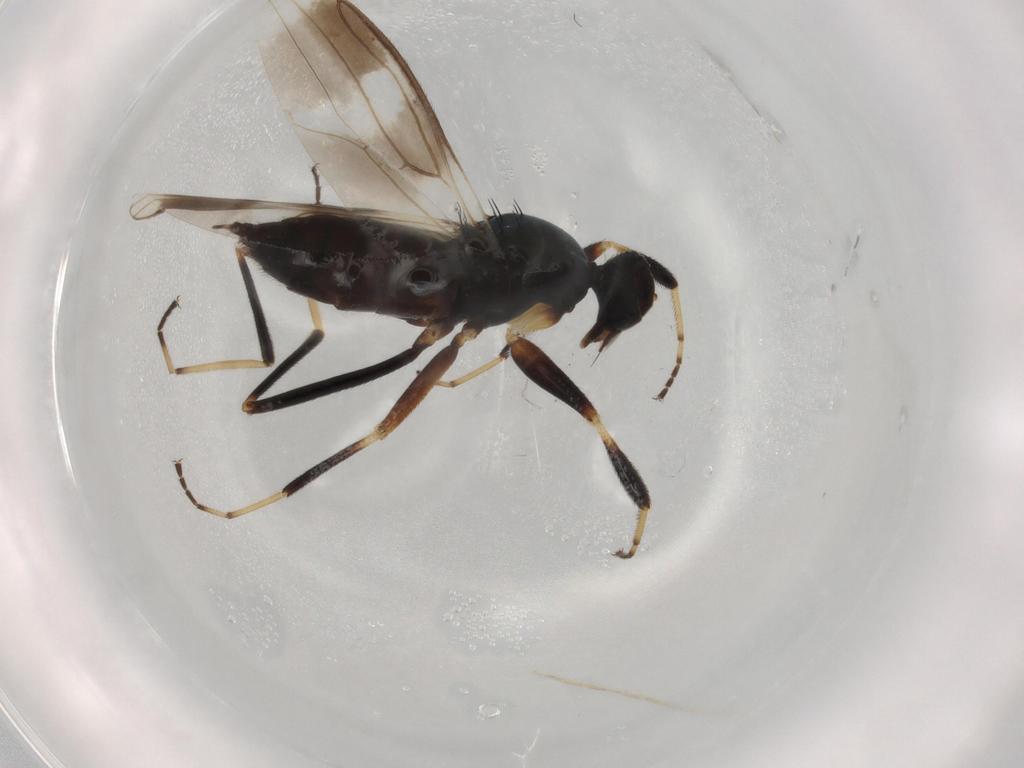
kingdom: Animalia
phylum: Arthropoda
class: Insecta
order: Diptera
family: Hybotidae
